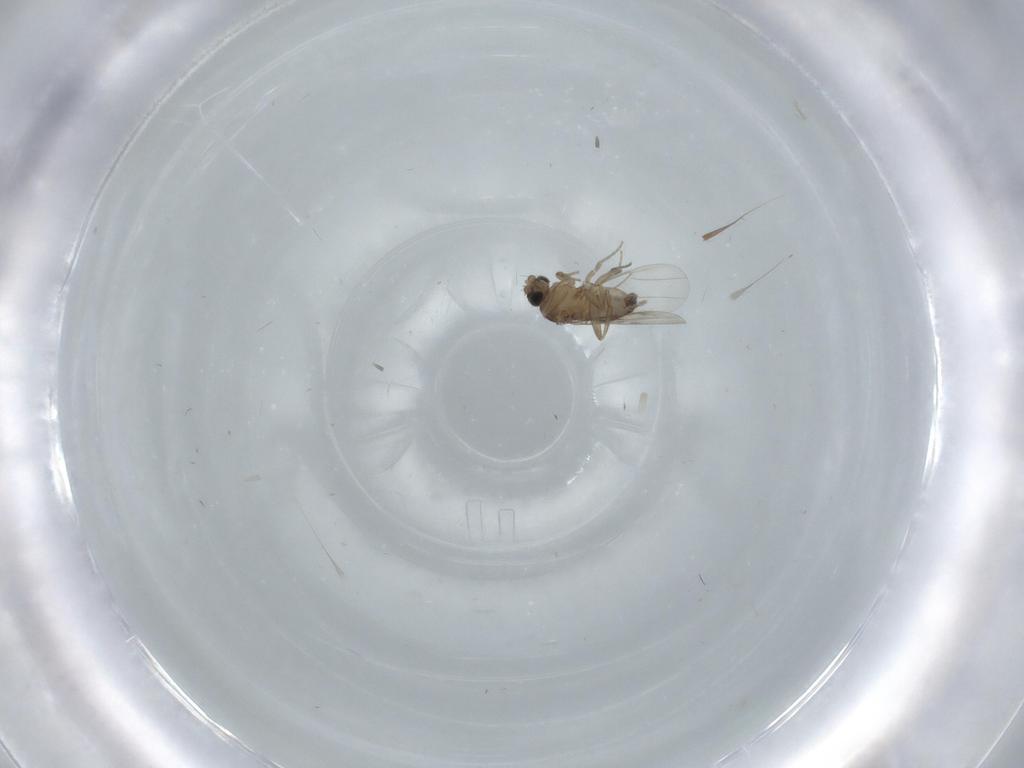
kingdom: Animalia
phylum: Arthropoda
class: Insecta
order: Diptera
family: Phoridae
